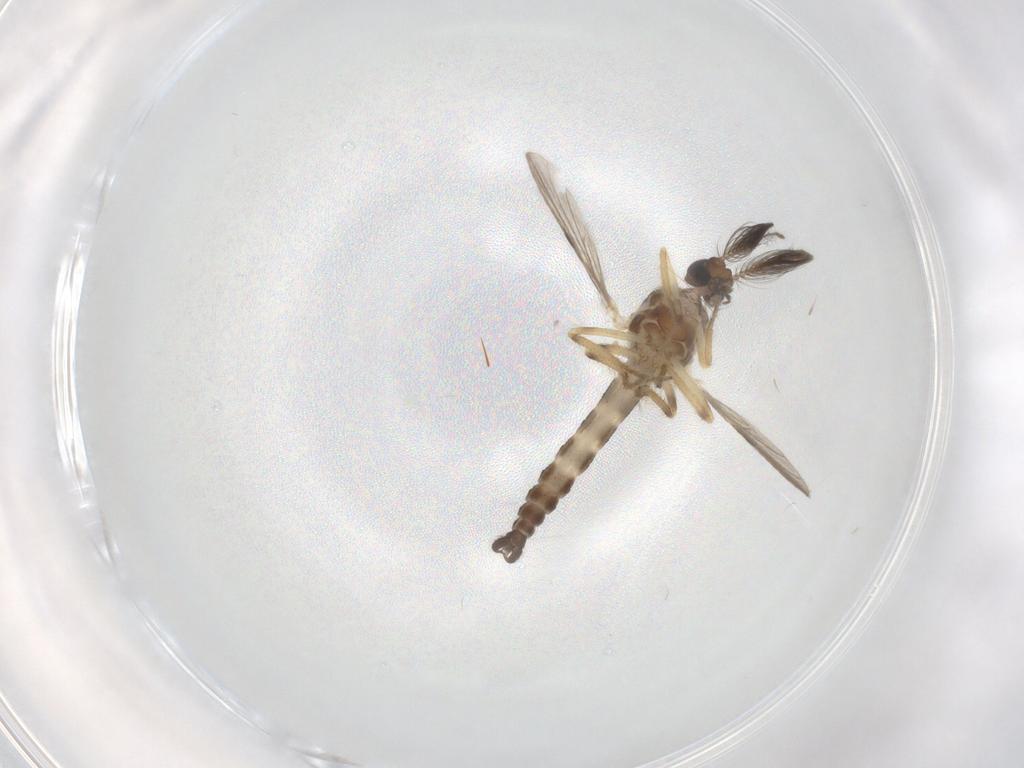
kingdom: Animalia
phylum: Arthropoda
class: Insecta
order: Diptera
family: Ceratopogonidae
